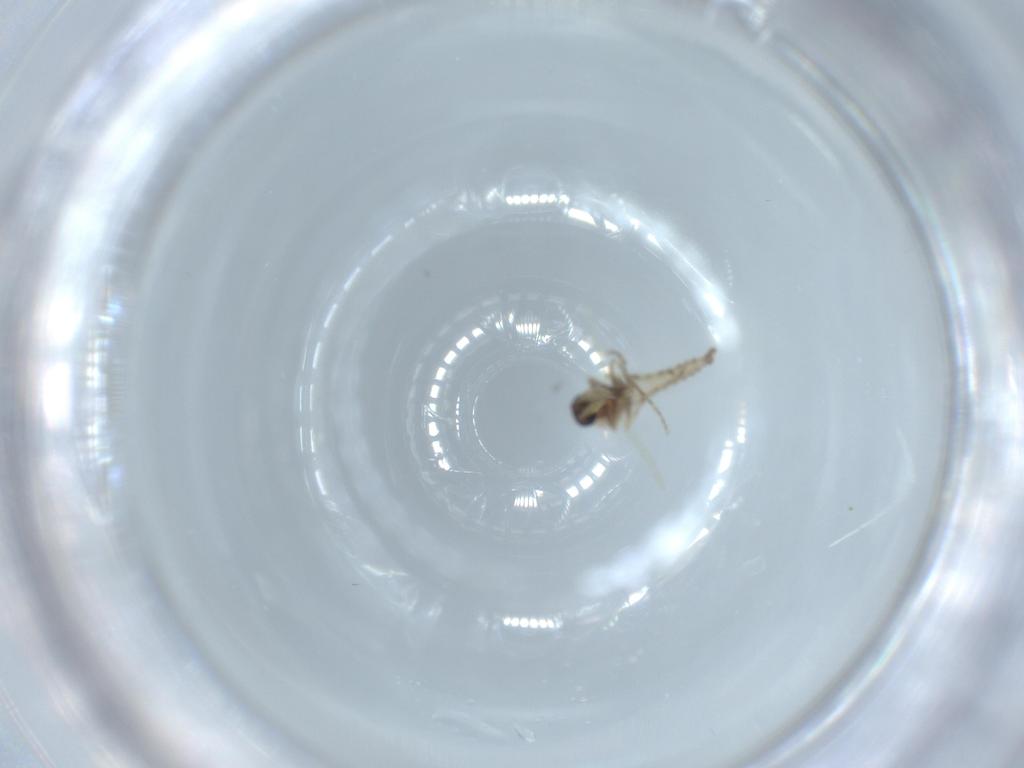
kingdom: Animalia
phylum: Arthropoda
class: Insecta
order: Diptera
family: Ceratopogonidae
